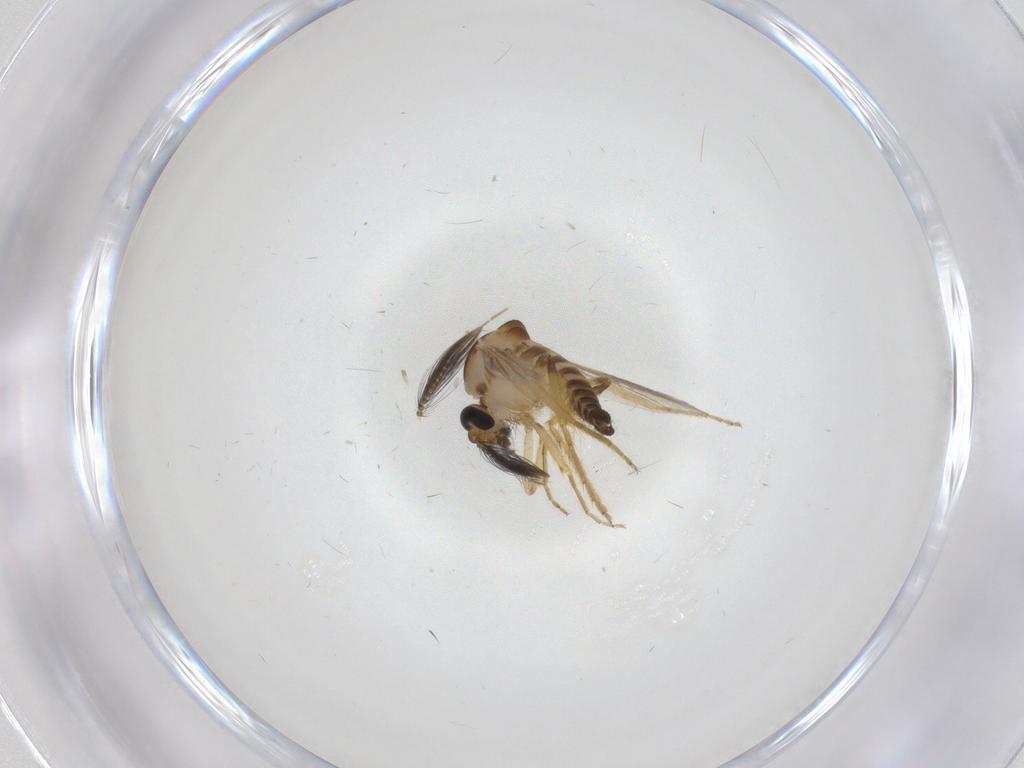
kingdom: Animalia
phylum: Arthropoda
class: Insecta
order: Diptera
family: Ceratopogonidae
